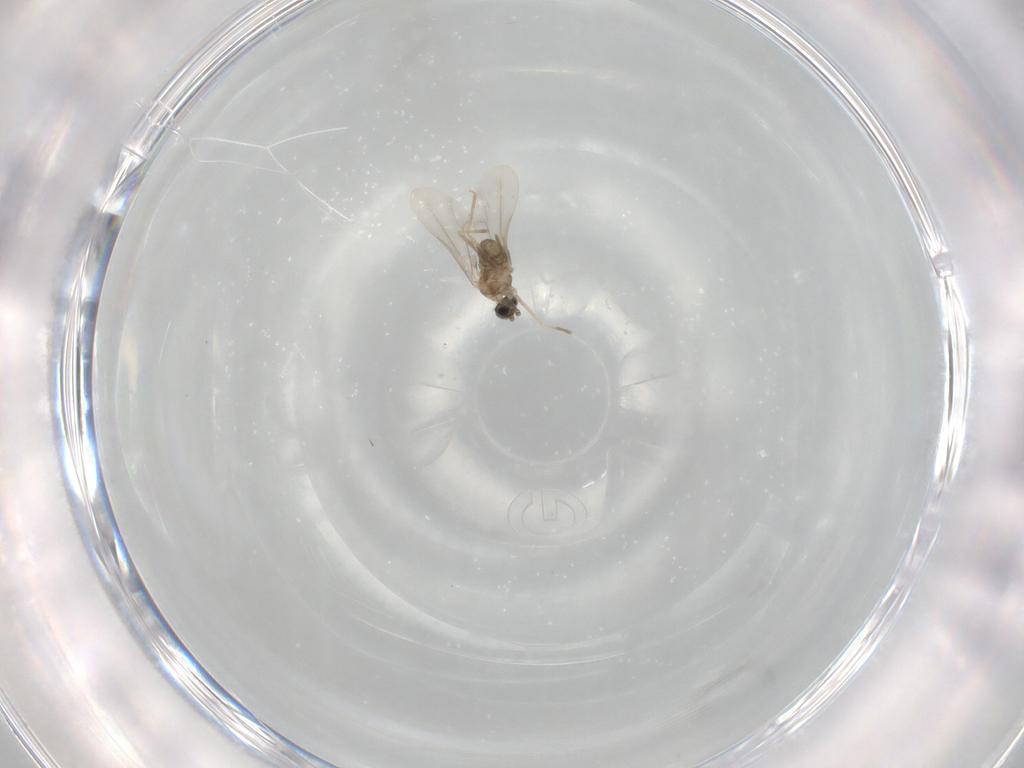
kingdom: Animalia
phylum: Arthropoda
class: Insecta
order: Diptera
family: Cecidomyiidae
